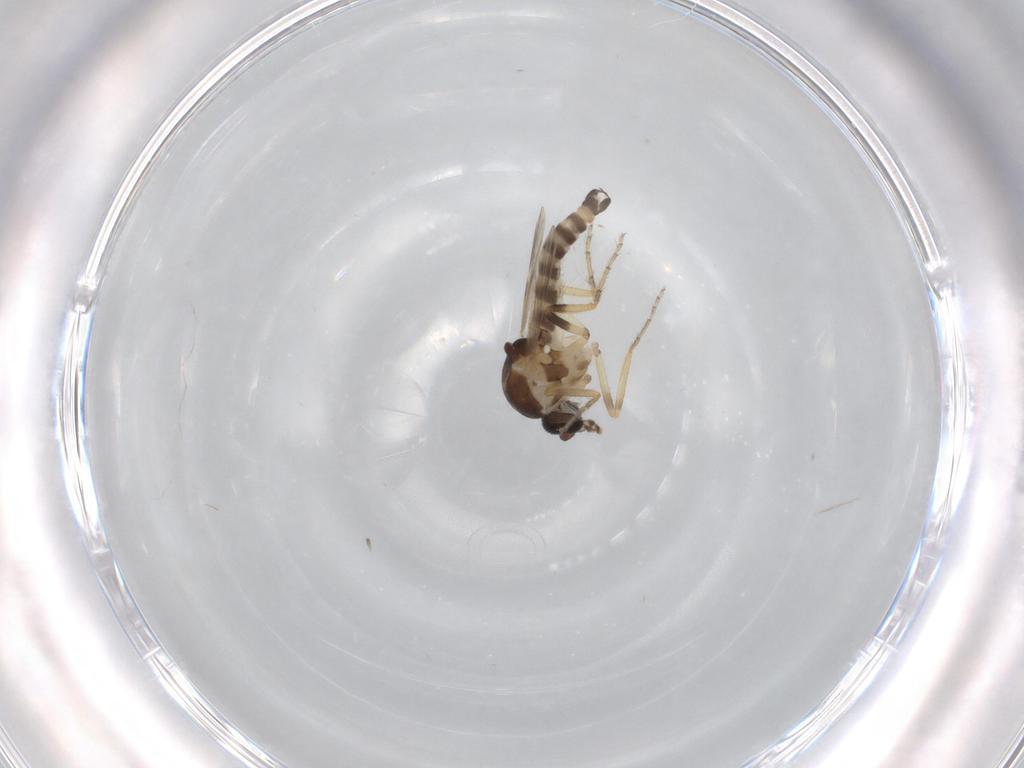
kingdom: Animalia
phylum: Arthropoda
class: Insecta
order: Diptera
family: Ceratopogonidae
